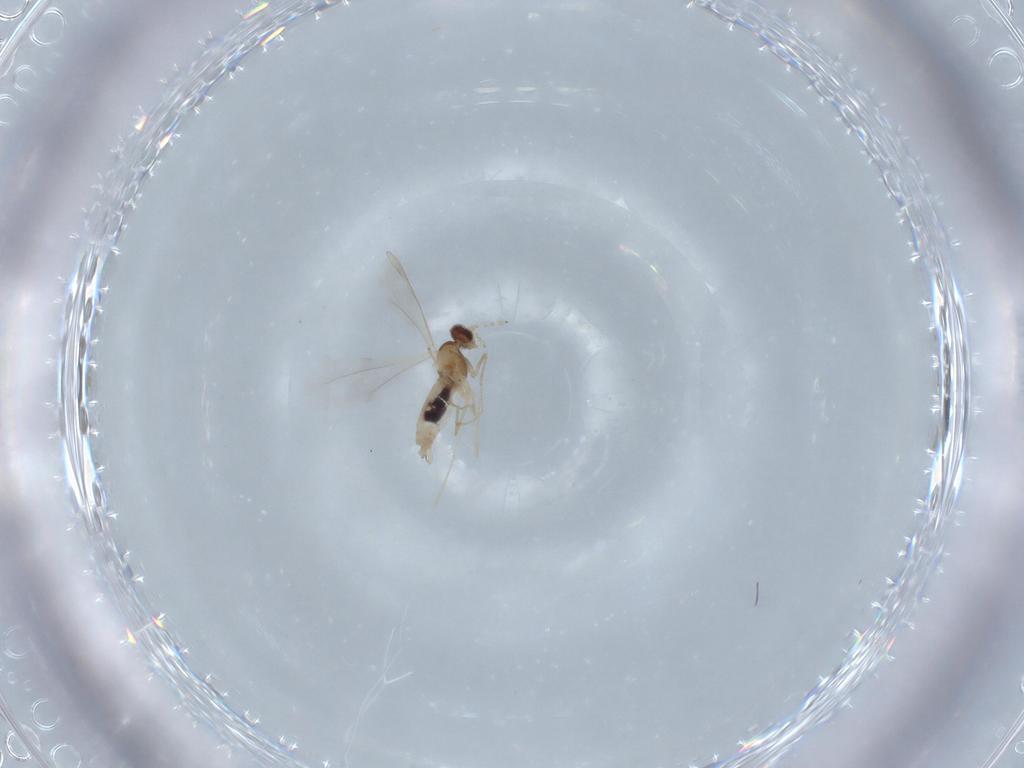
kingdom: Animalia
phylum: Arthropoda
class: Insecta
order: Diptera
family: Cecidomyiidae
